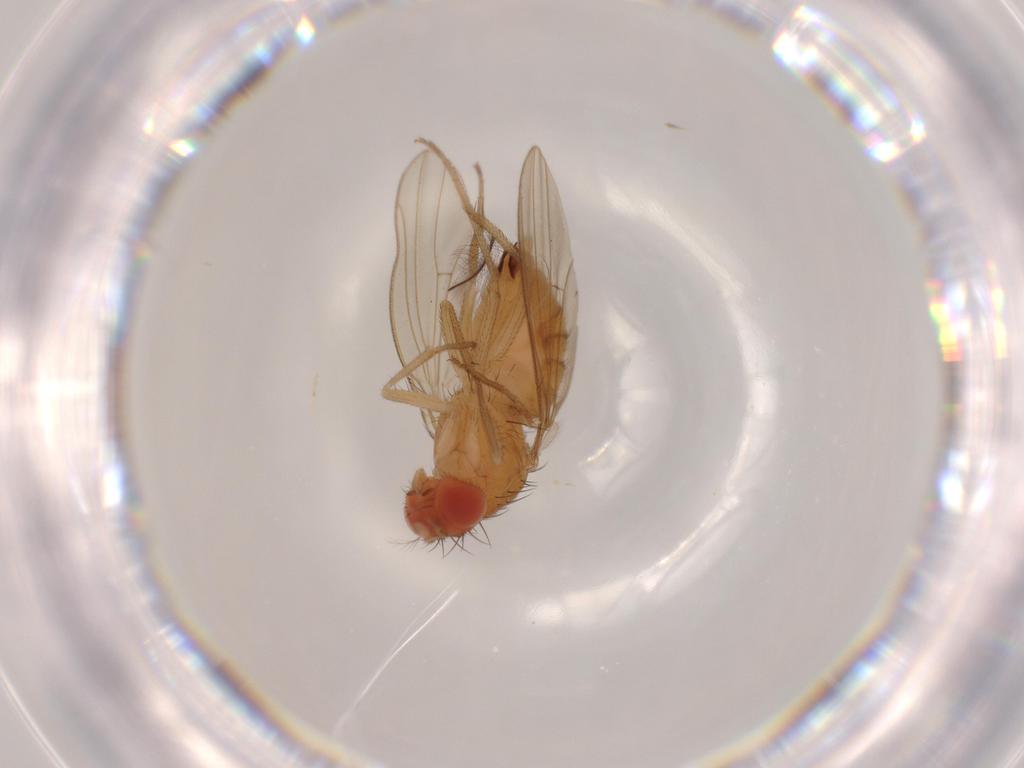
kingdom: Animalia
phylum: Arthropoda
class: Insecta
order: Diptera
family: Drosophilidae
